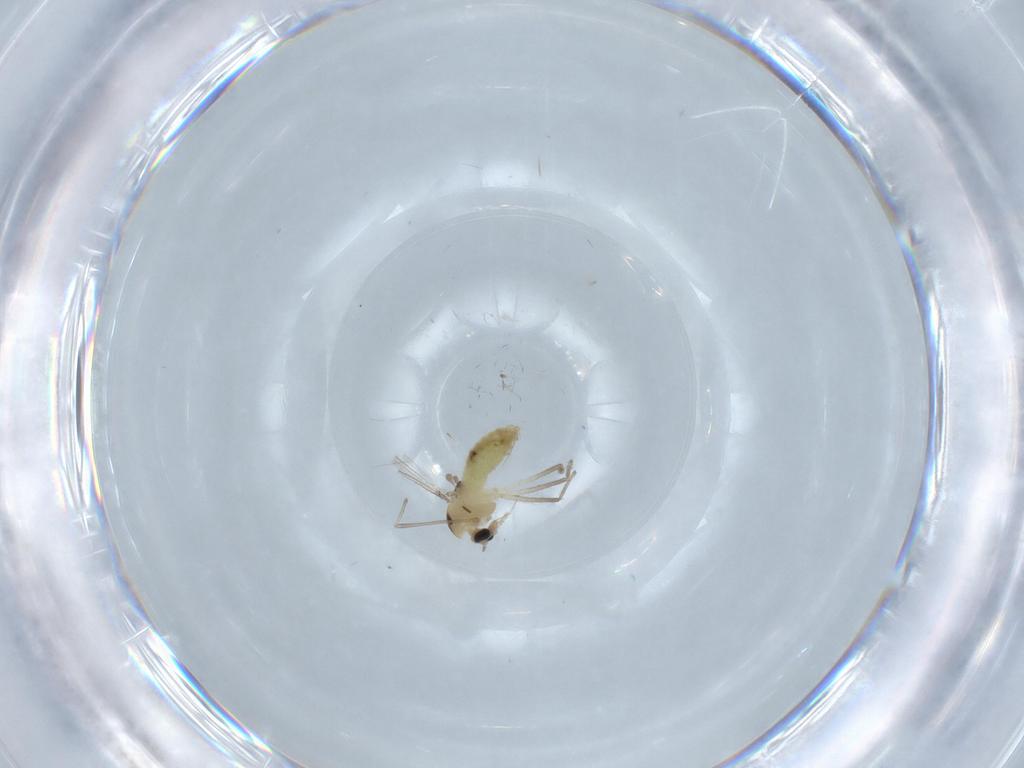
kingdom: Animalia
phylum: Arthropoda
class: Insecta
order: Diptera
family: Chironomidae
